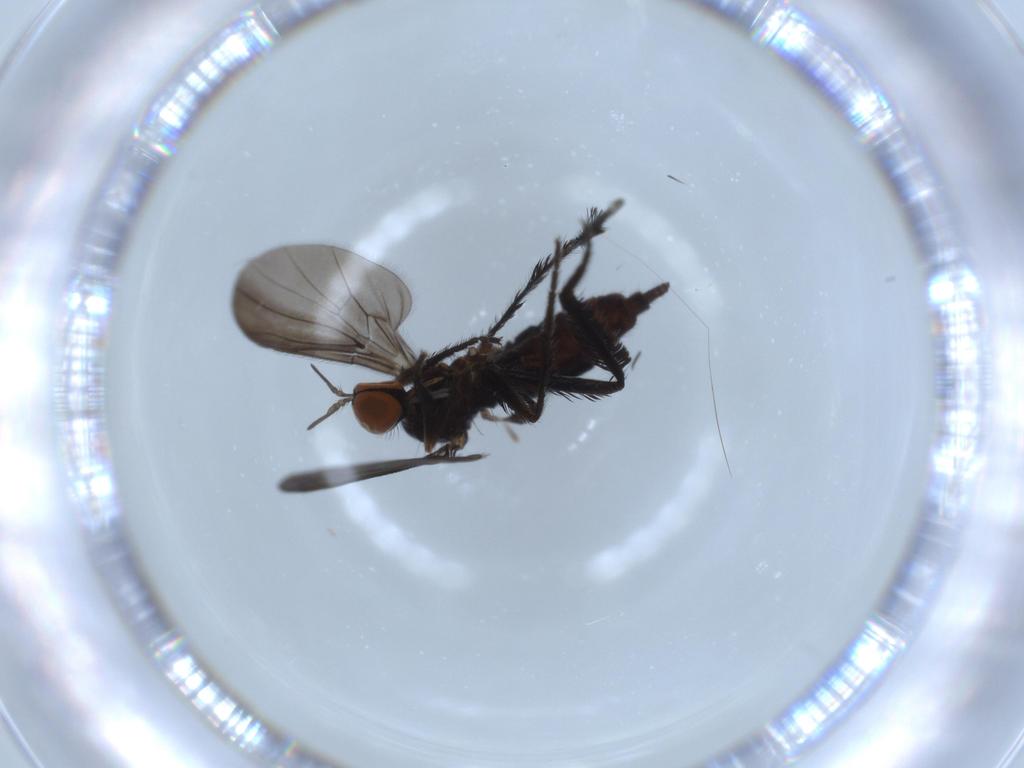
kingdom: Animalia
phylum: Arthropoda
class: Insecta
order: Diptera
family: Empididae
